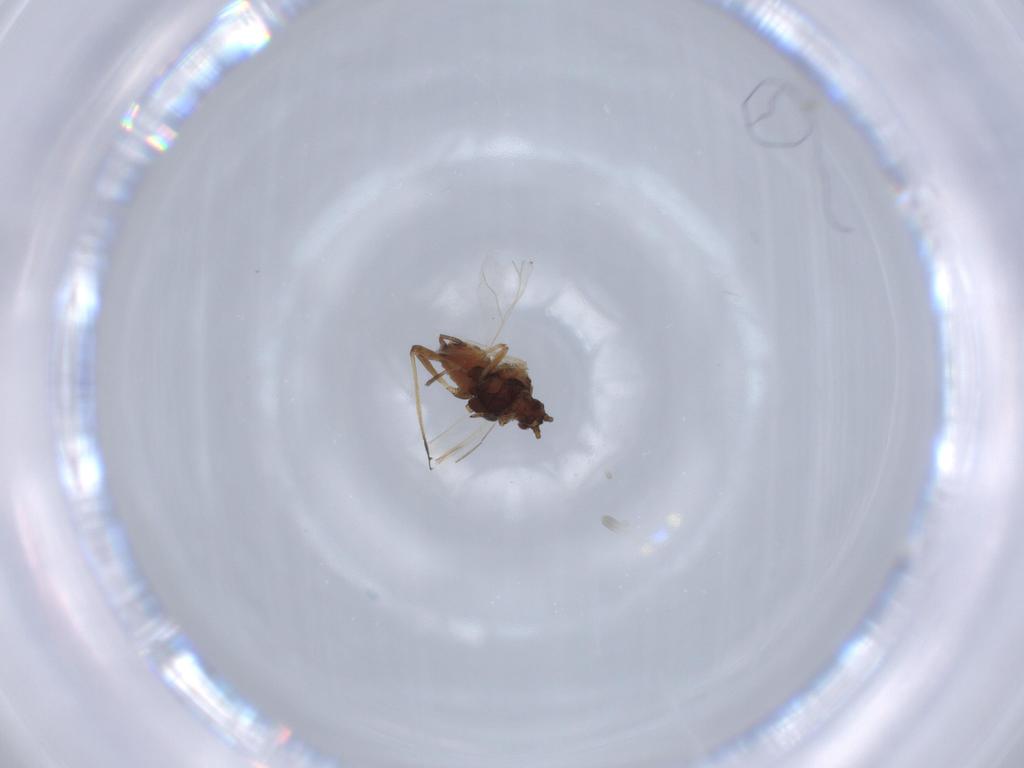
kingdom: Animalia
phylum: Arthropoda
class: Insecta
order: Hemiptera
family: Aphididae
